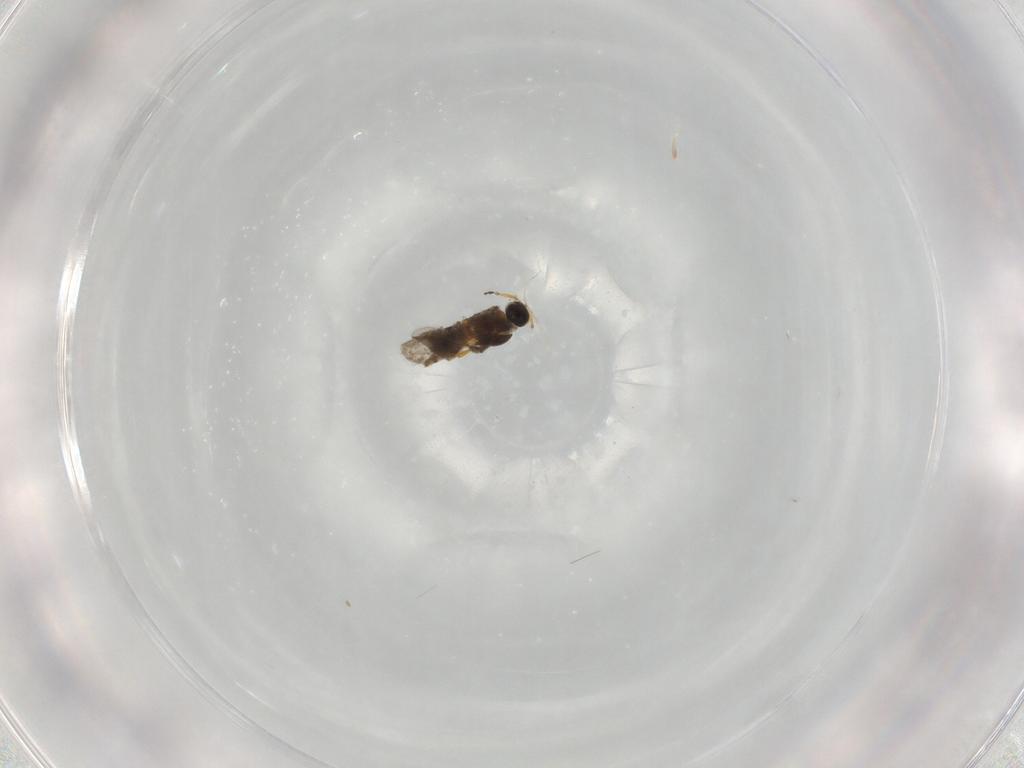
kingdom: Animalia
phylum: Arthropoda
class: Insecta
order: Hymenoptera
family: Platygastridae
